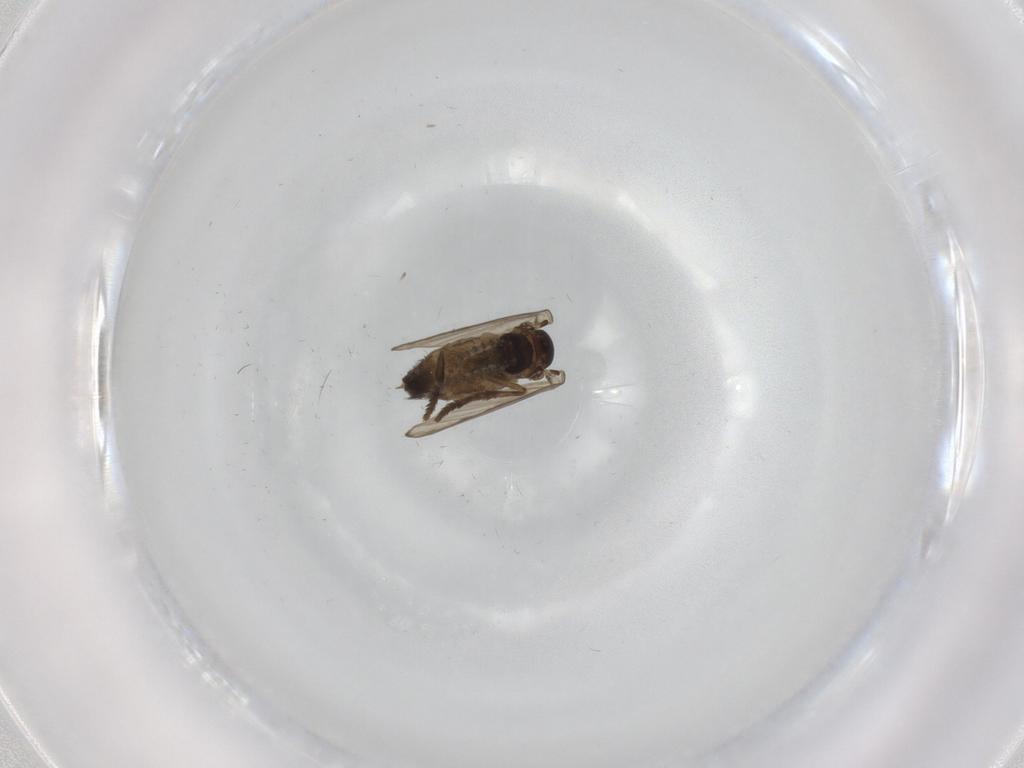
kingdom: Animalia
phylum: Arthropoda
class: Insecta
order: Diptera
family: Psychodidae
